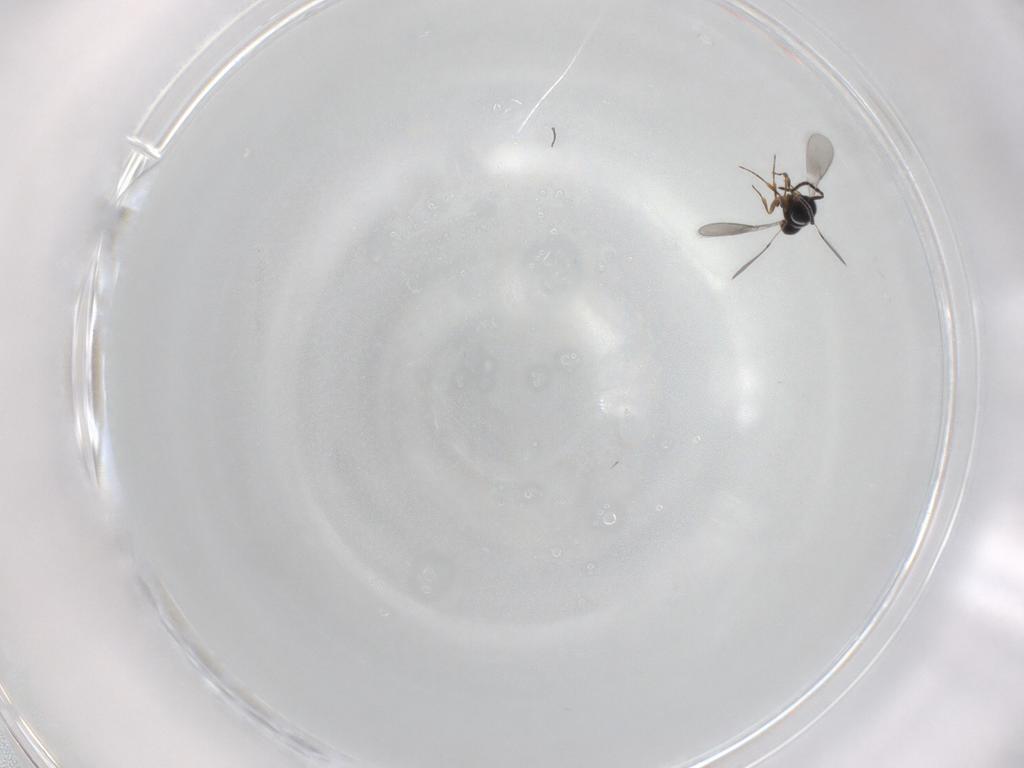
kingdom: Animalia
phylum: Arthropoda
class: Insecta
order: Hymenoptera
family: Scelionidae
